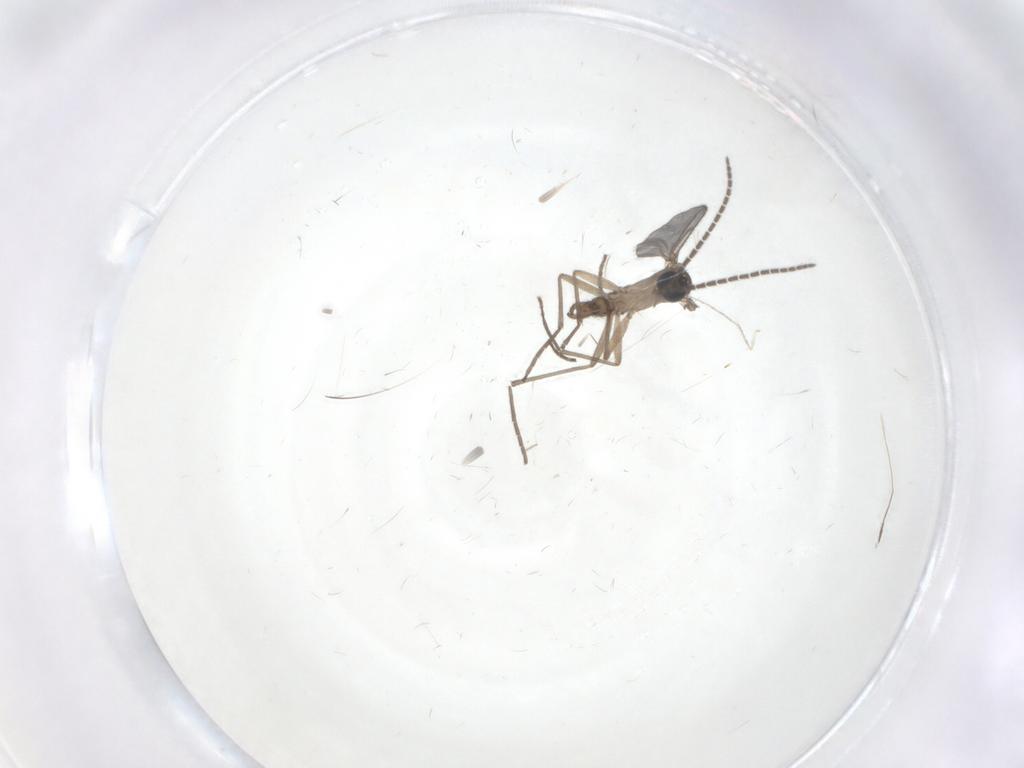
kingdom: Animalia
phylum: Arthropoda
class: Insecta
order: Diptera
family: Sciaridae
